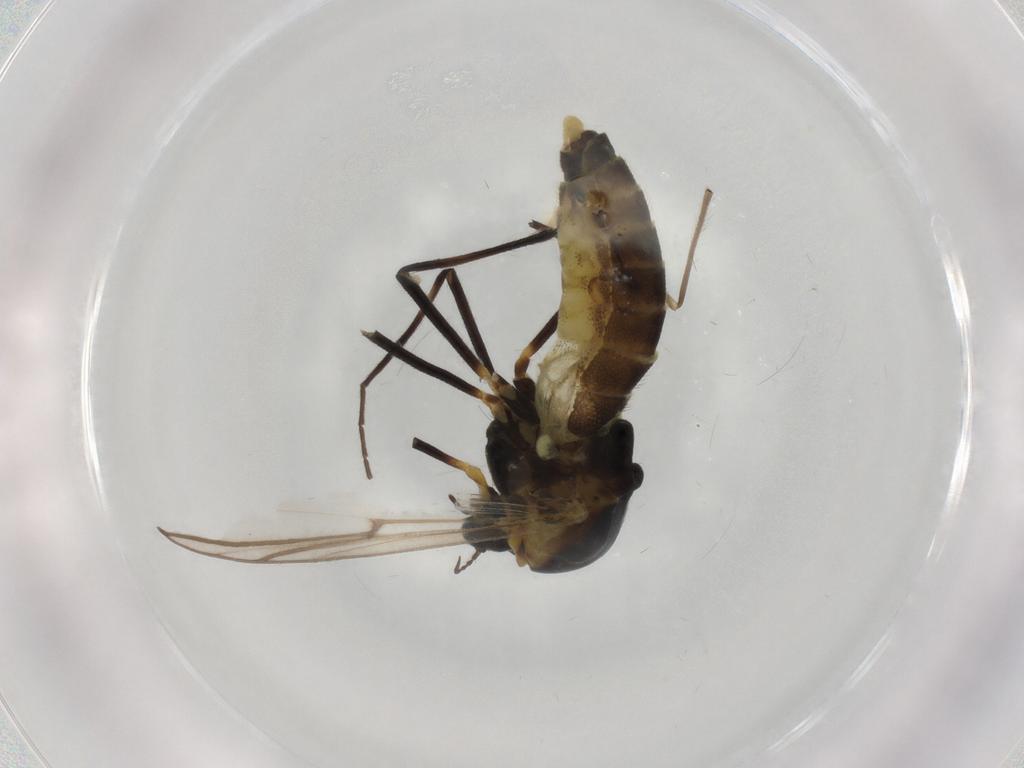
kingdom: Animalia
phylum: Arthropoda
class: Insecta
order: Diptera
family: Chironomidae
